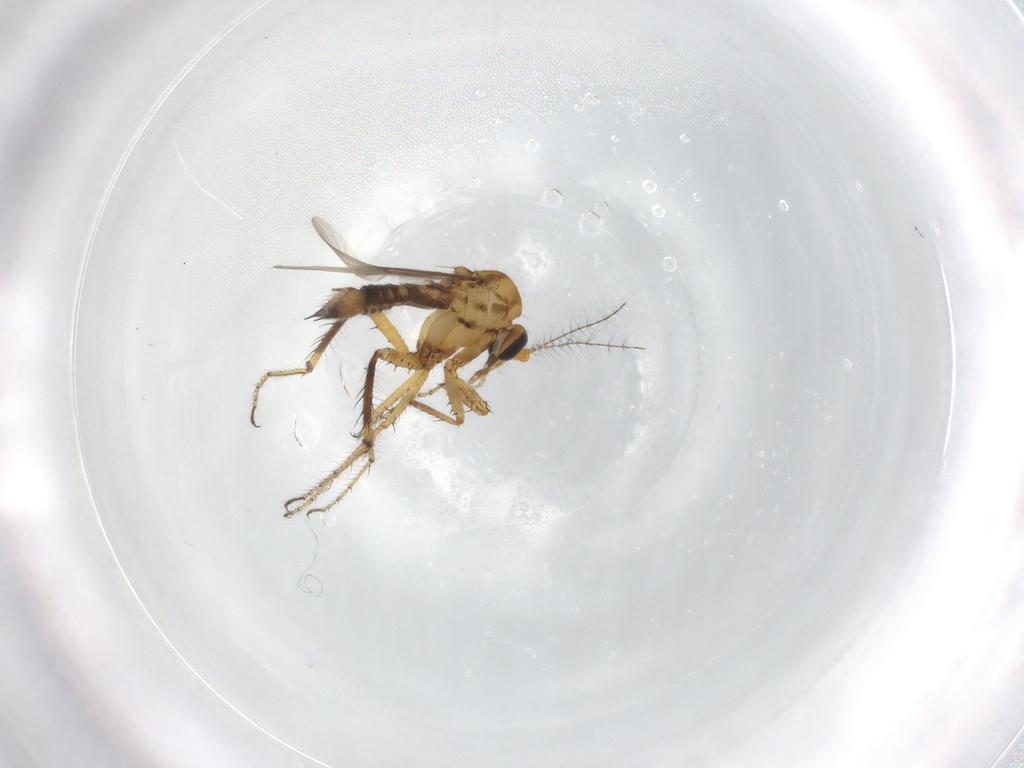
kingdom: Animalia
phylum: Arthropoda
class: Insecta
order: Diptera
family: Ceratopogonidae
